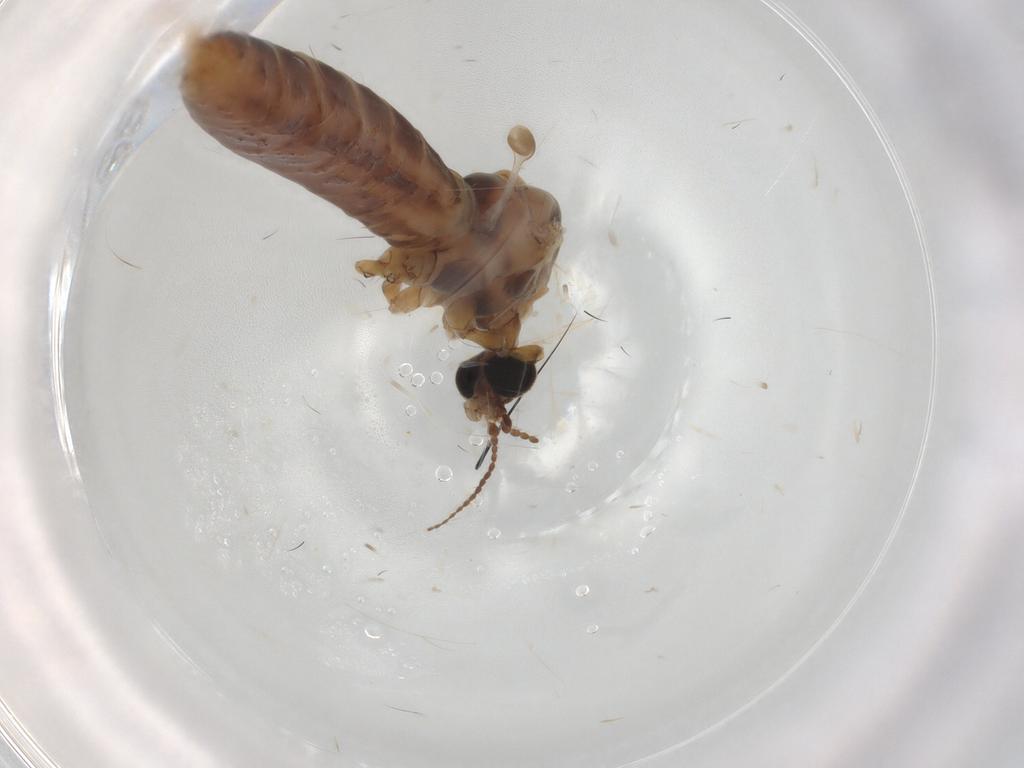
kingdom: Animalia
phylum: Arthropoda
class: Insecta
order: Diptera
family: Limoniidae
